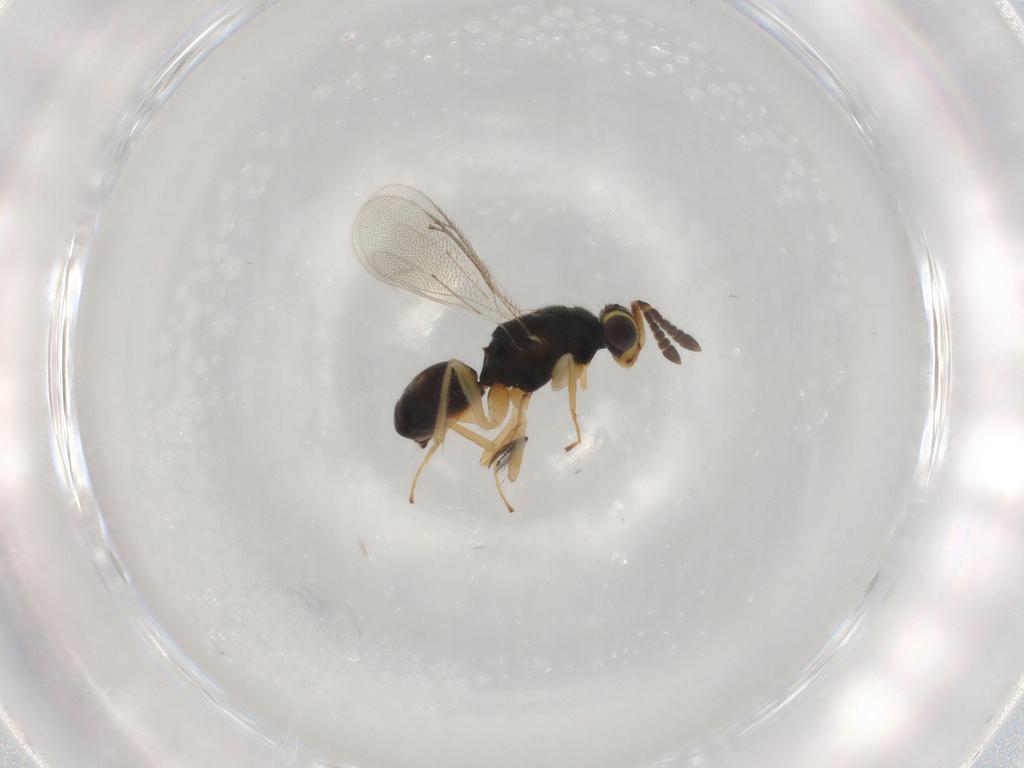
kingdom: Animalia
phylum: Arthropoda
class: Insecta
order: Hymenoptera
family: Eulophidae
